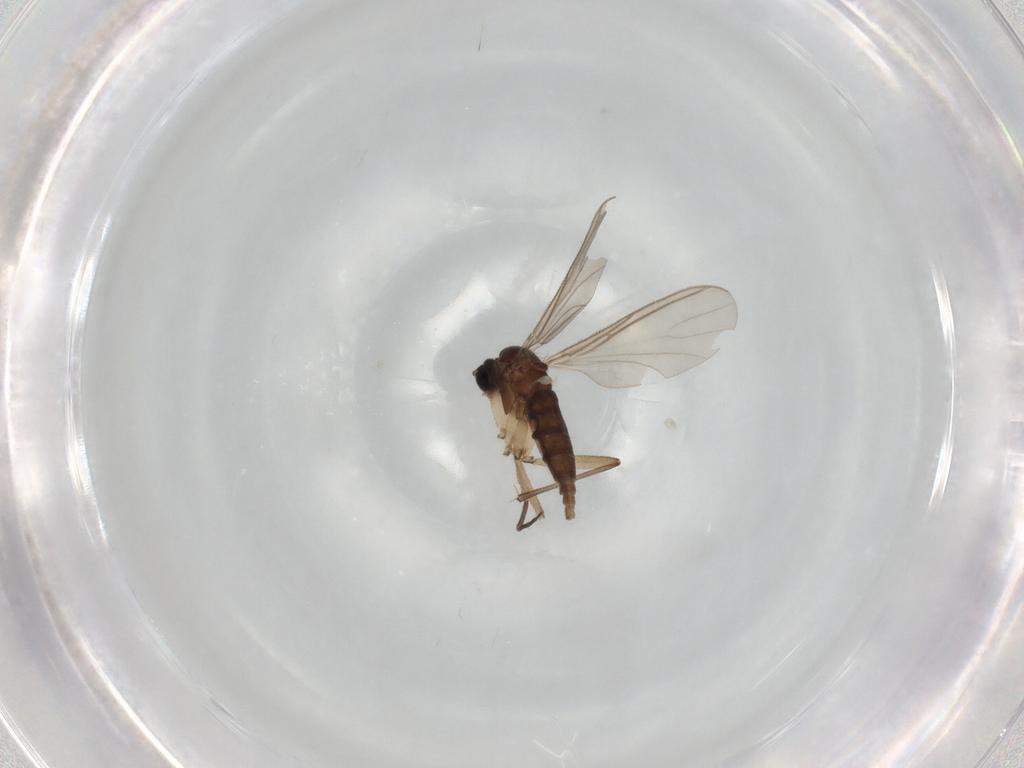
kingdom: Animalia
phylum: Arthropoda
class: Insecta
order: Diptera
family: Sciaridae
